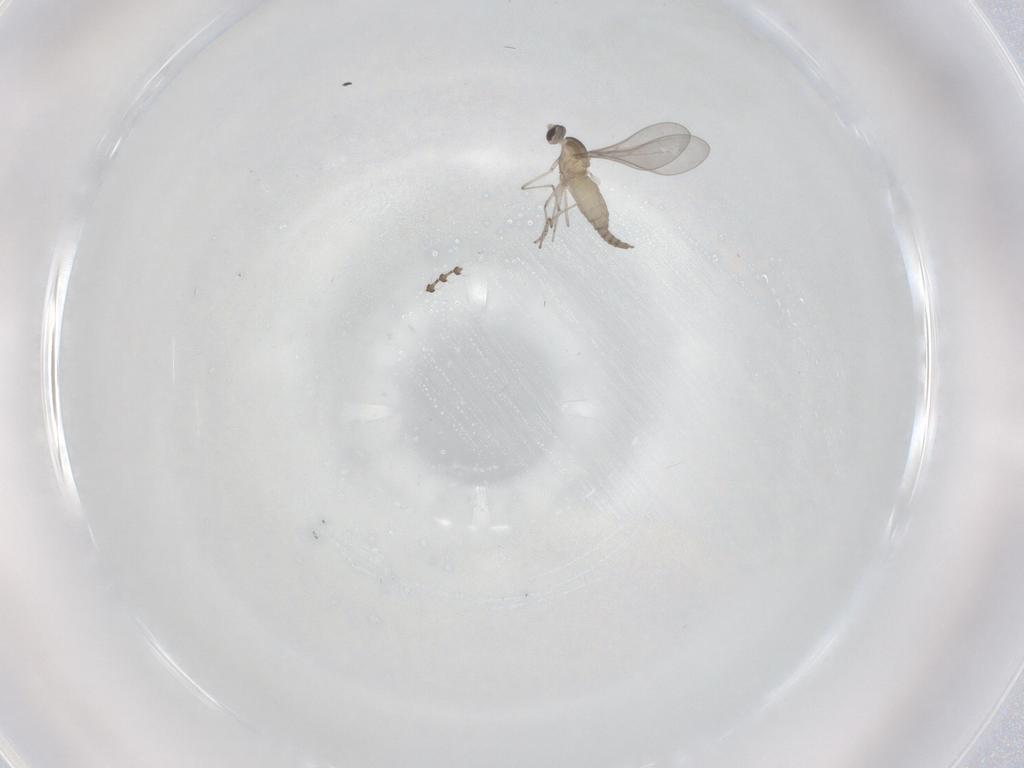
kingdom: Animalia
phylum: Arthropoda
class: Insecta
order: Diptera
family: Cecidomyiidae
